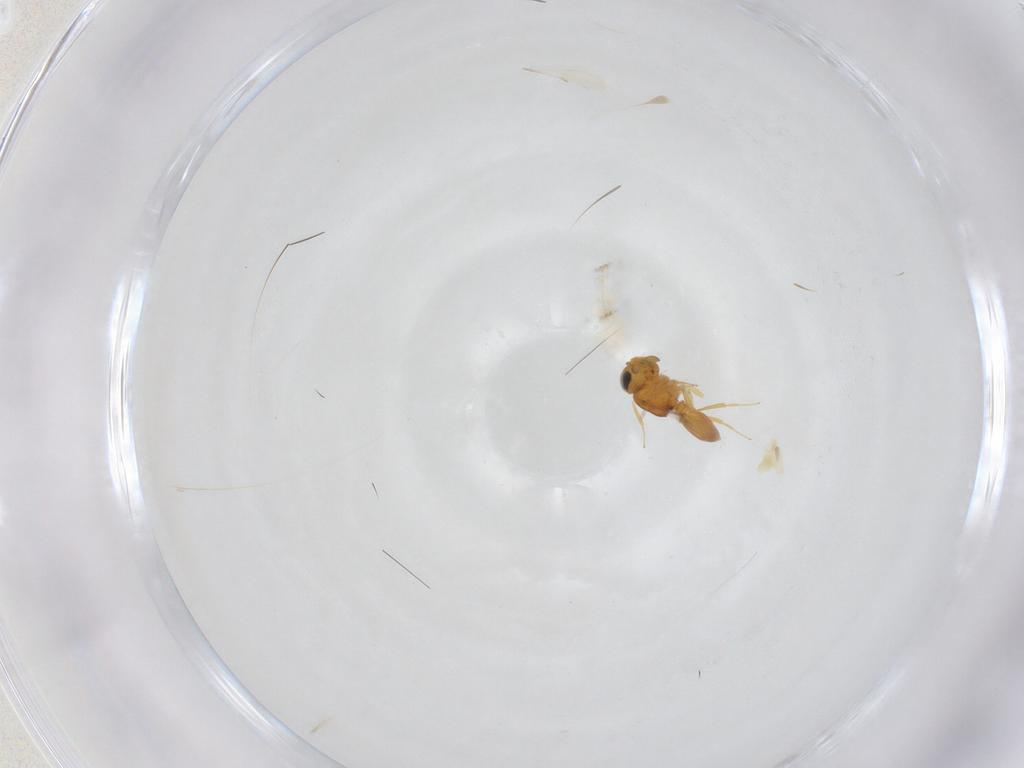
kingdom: Animalia
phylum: Arthropoda
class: Insecta
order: Hymenoptera
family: Scelionidae
